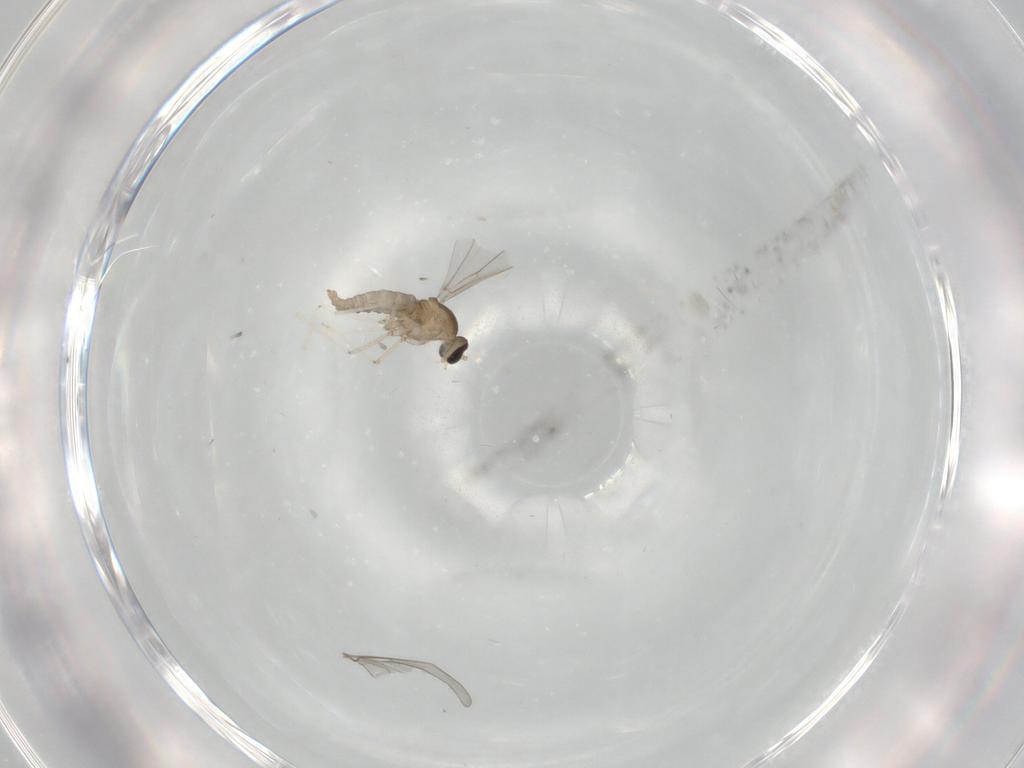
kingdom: Animalia
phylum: Arthropoda
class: Insecta
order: Diptera
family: Cecidomyiidae
